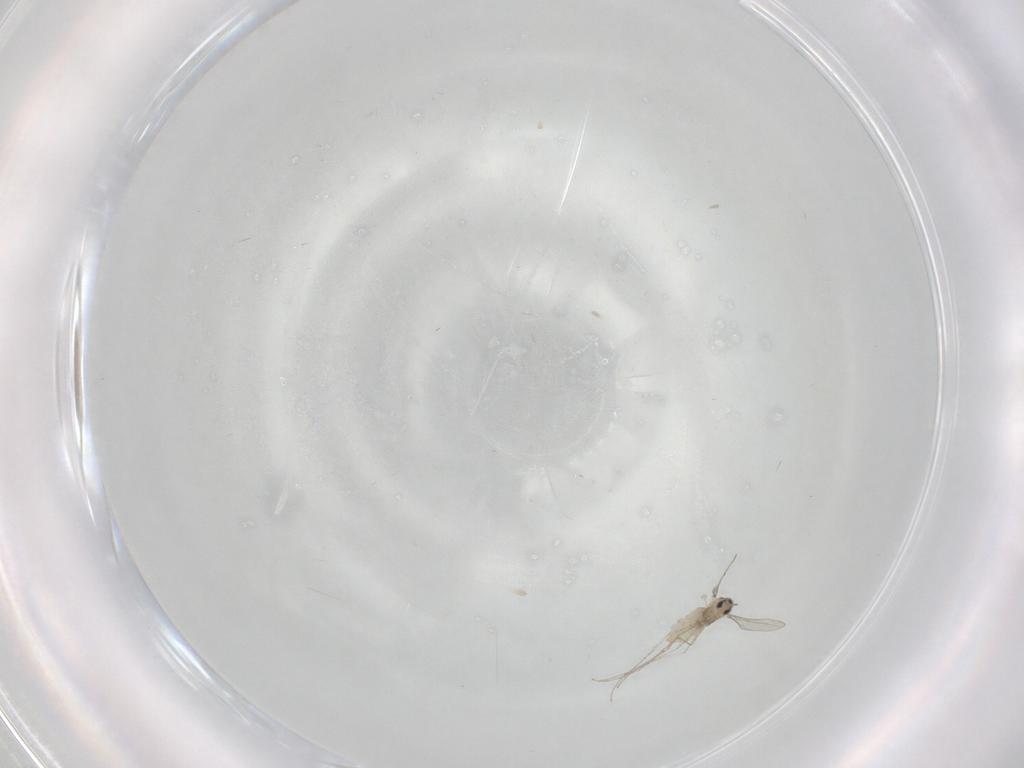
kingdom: Animalia
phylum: Arthropoda
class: Insecta
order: Diptera
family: Cecidomyiidae
